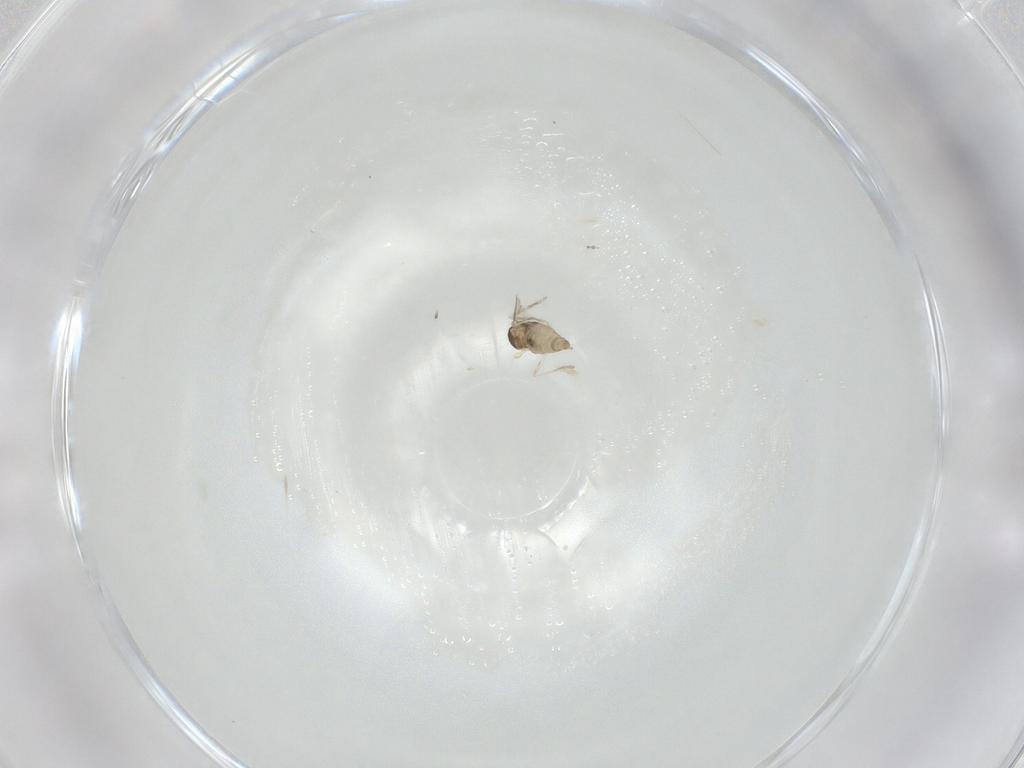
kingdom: Animalia
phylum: Arthropoda
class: Insecta
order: Diptera
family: Cecidomyiidae
